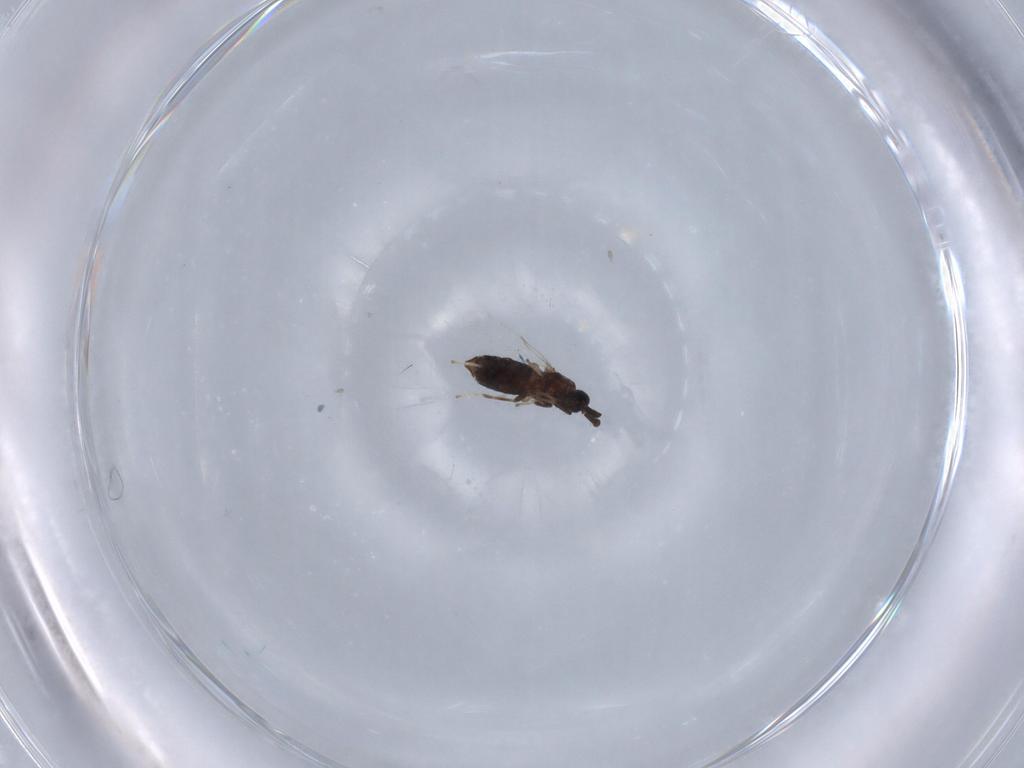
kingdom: Animalia
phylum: Arthropoda
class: Insecta
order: Diptera
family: Scatopsidae
